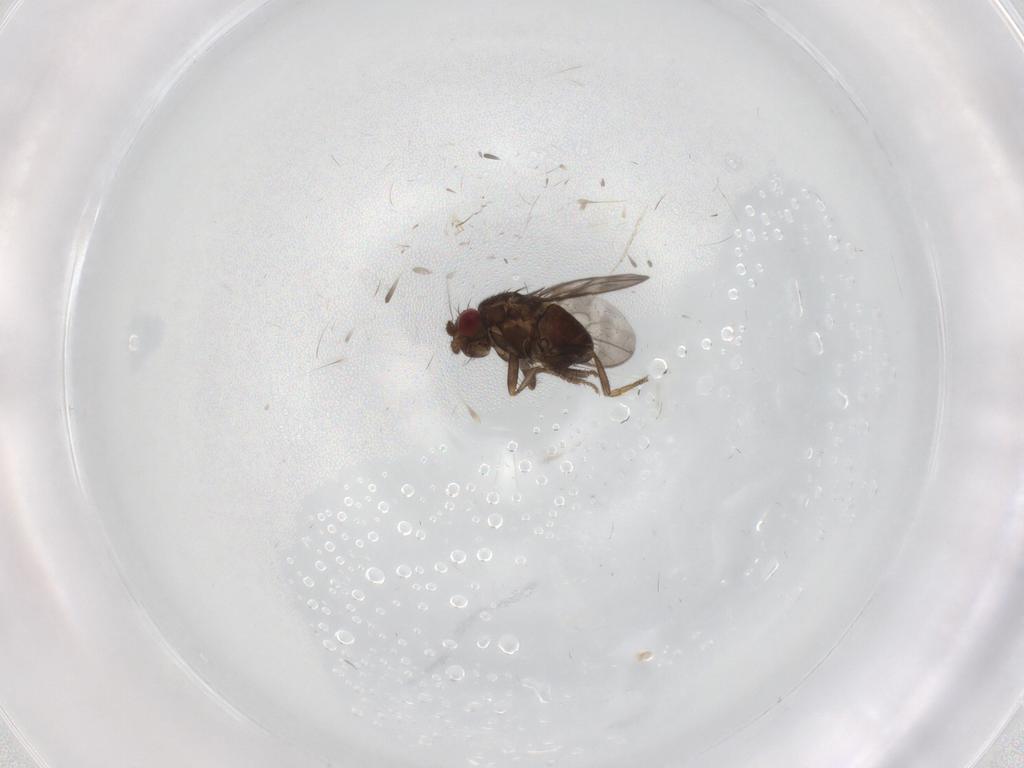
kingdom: Animalia
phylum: Arthropoda
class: Insecta
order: Diptera
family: Sphaeroceridae
